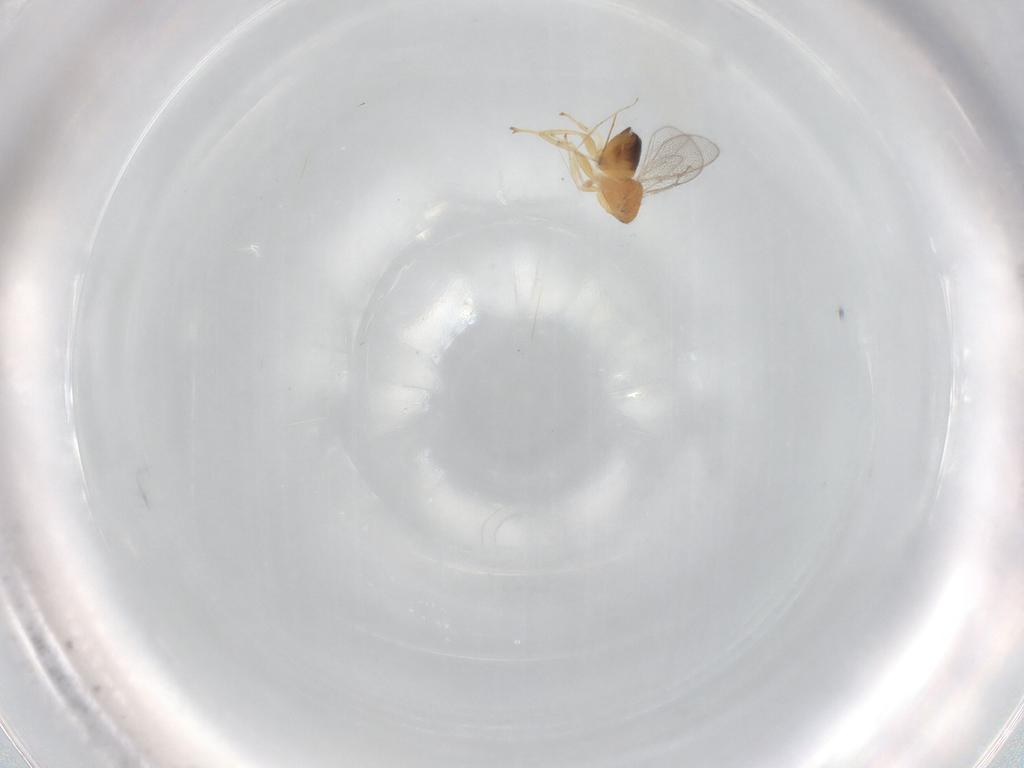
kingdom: Animalia
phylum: Arthropoda
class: Insecta
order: Hymenoptera
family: Eulophidae
